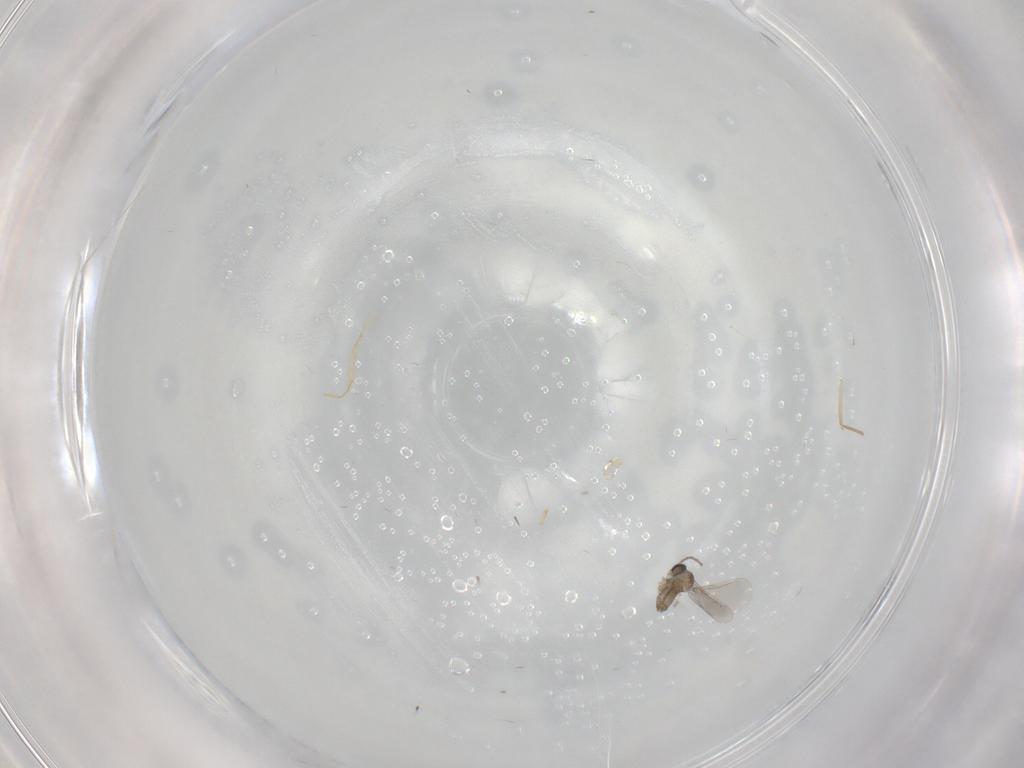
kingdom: Animalia
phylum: Arthropoda
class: Insecta
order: Diptera
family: Cecidomyiidae
